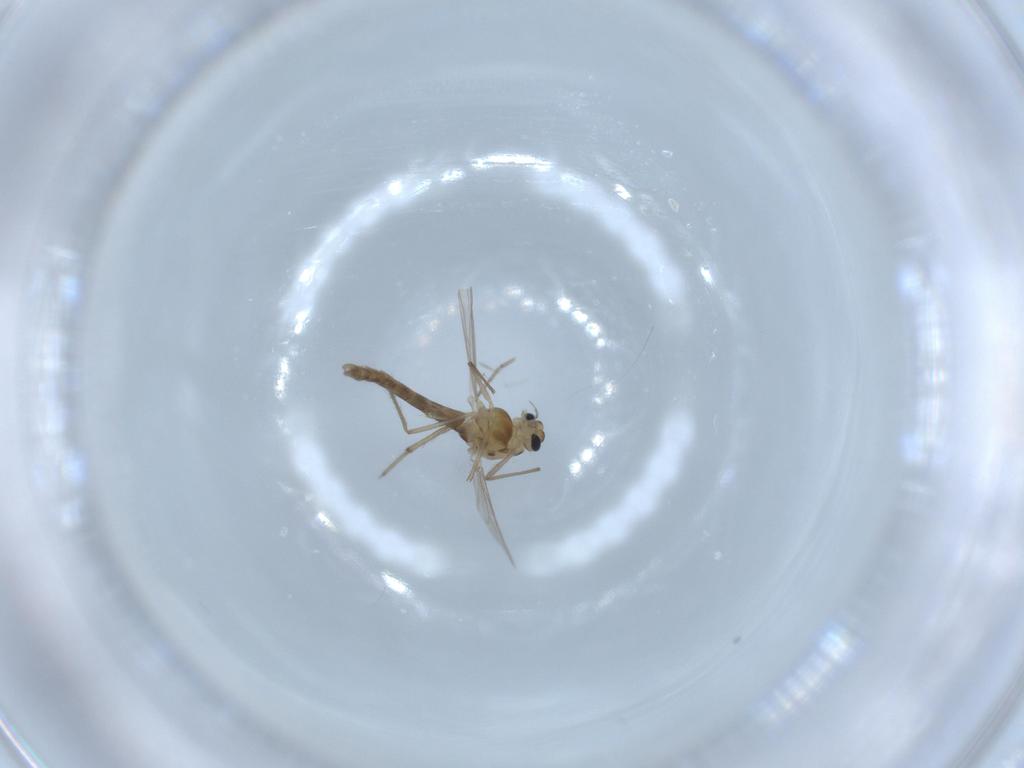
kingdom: Animalia
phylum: Arthropoda
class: Insecta
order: Diptera
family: Chironomidae
